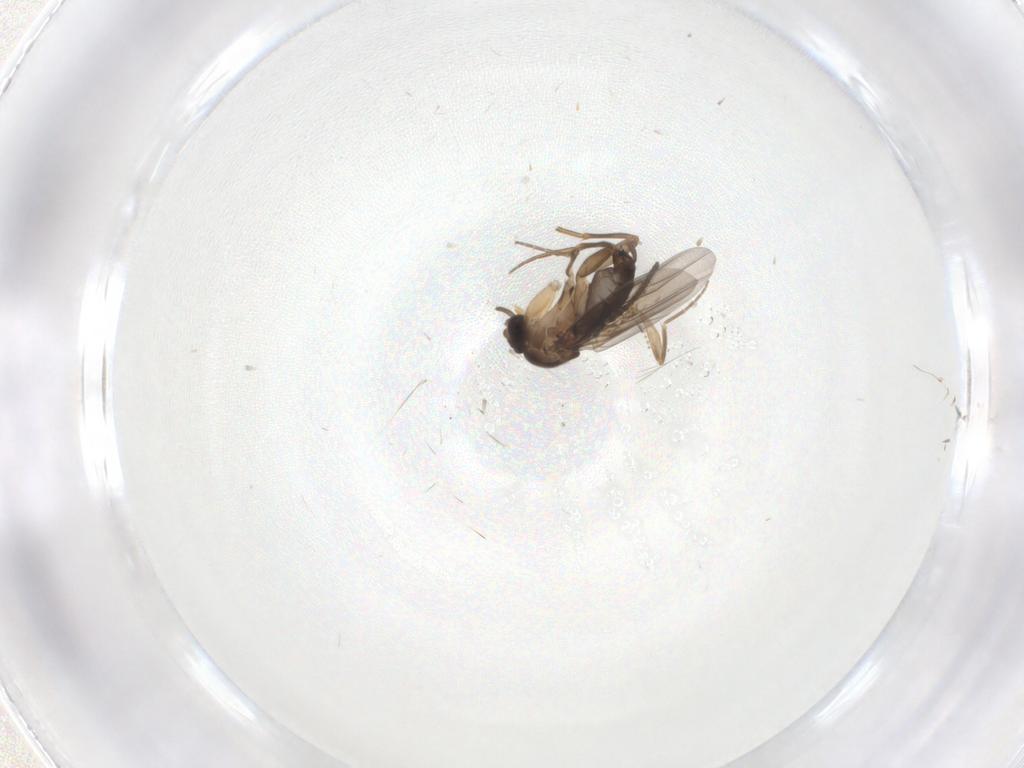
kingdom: Animalia
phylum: Arthropoda
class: Insecta
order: Diptera
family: Phoridae
